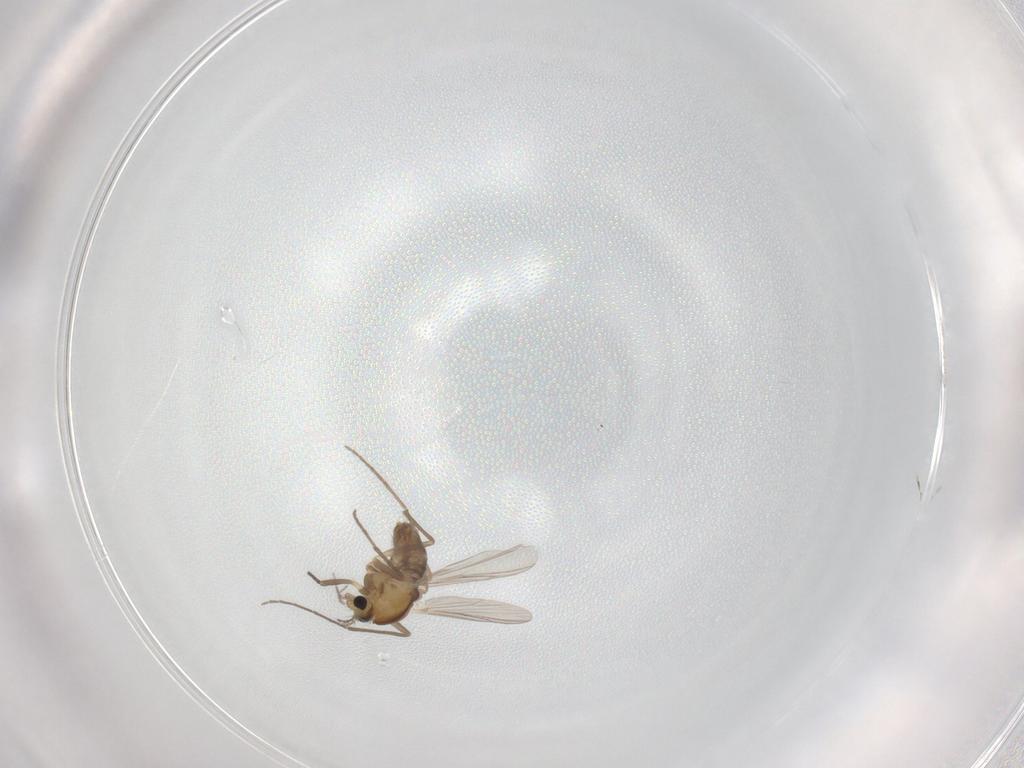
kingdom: Animalia
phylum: Arthropoda
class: Insecta
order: Diptera
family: Chironomidae
